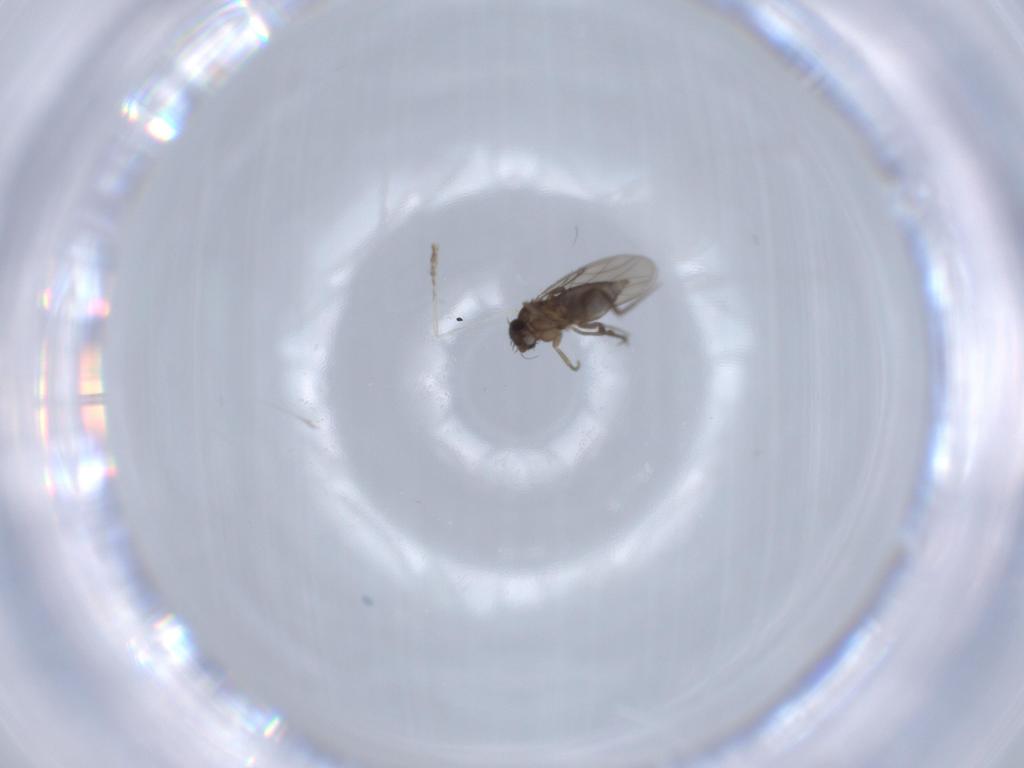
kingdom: Animalia
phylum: Arthropoda
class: Insecta
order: Diptera
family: Cecidomyiidae
